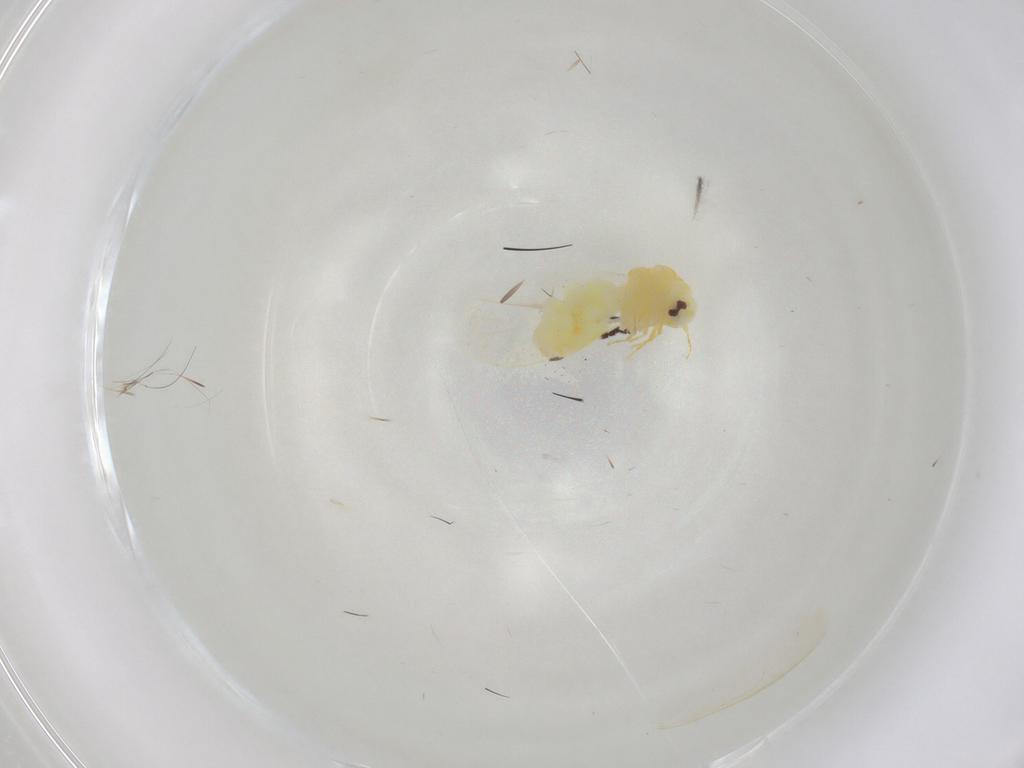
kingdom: Animalia
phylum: Arthropoda
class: Insecta
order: Hemiptera
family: Aleyrodidae
